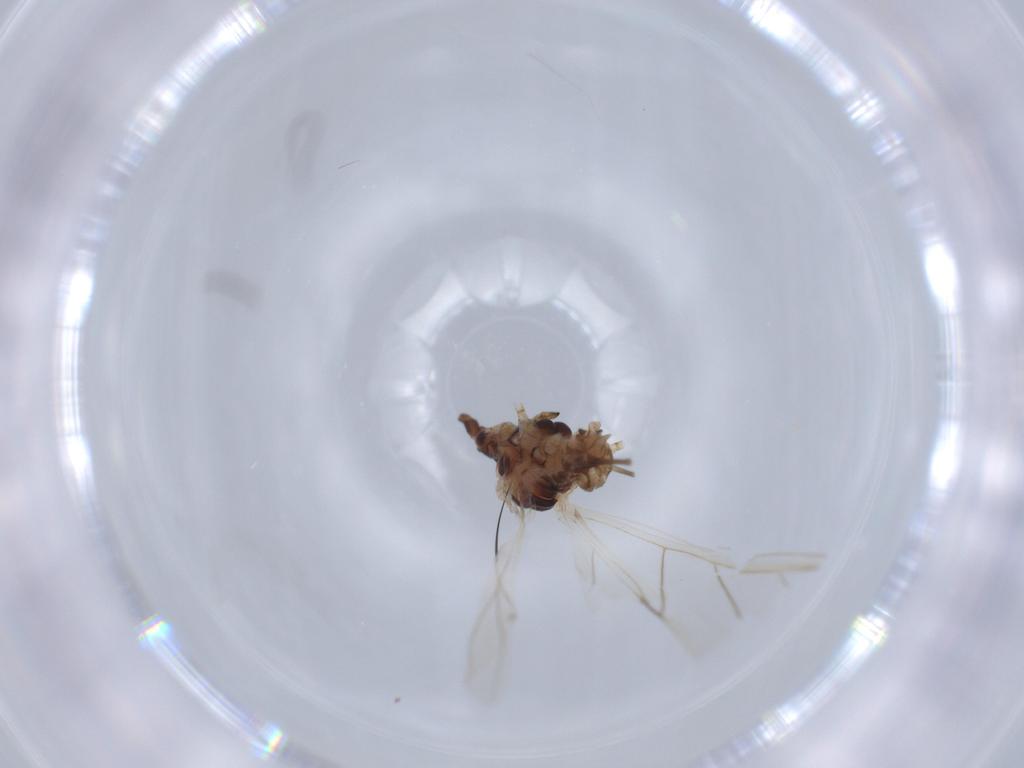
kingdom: Animalia
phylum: Arthropoda
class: Insecta
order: Hemiptera
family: Aphididae
